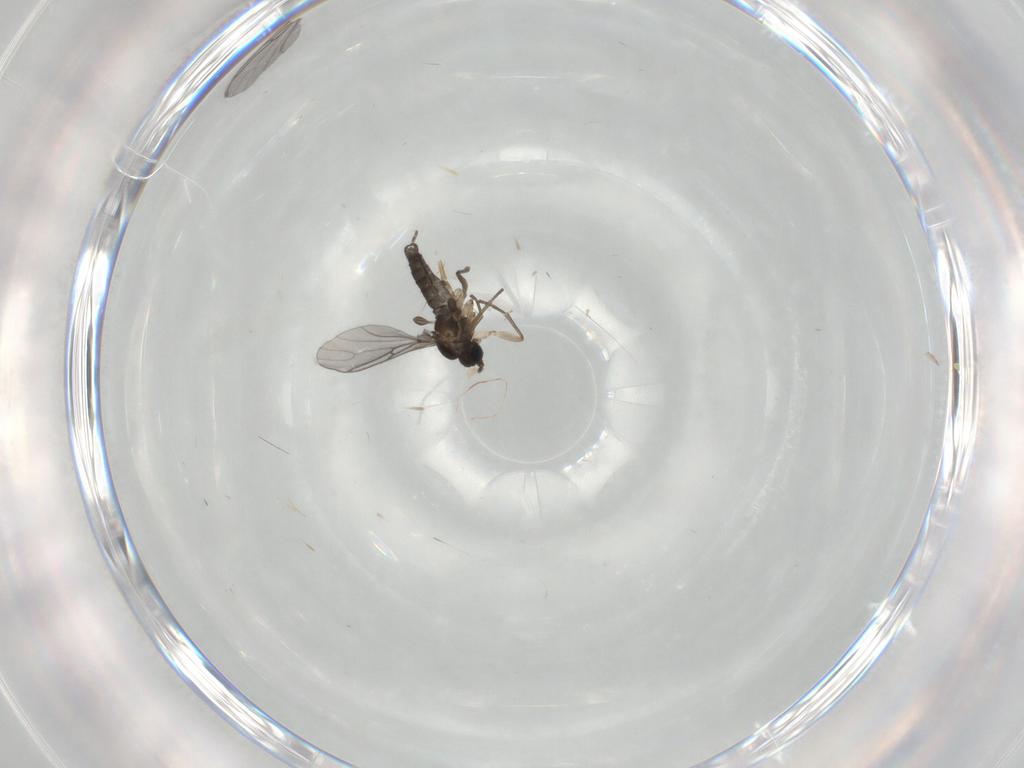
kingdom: Animalia
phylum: Arthropoda
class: Insecta
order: Diptera
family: Sciaridae
